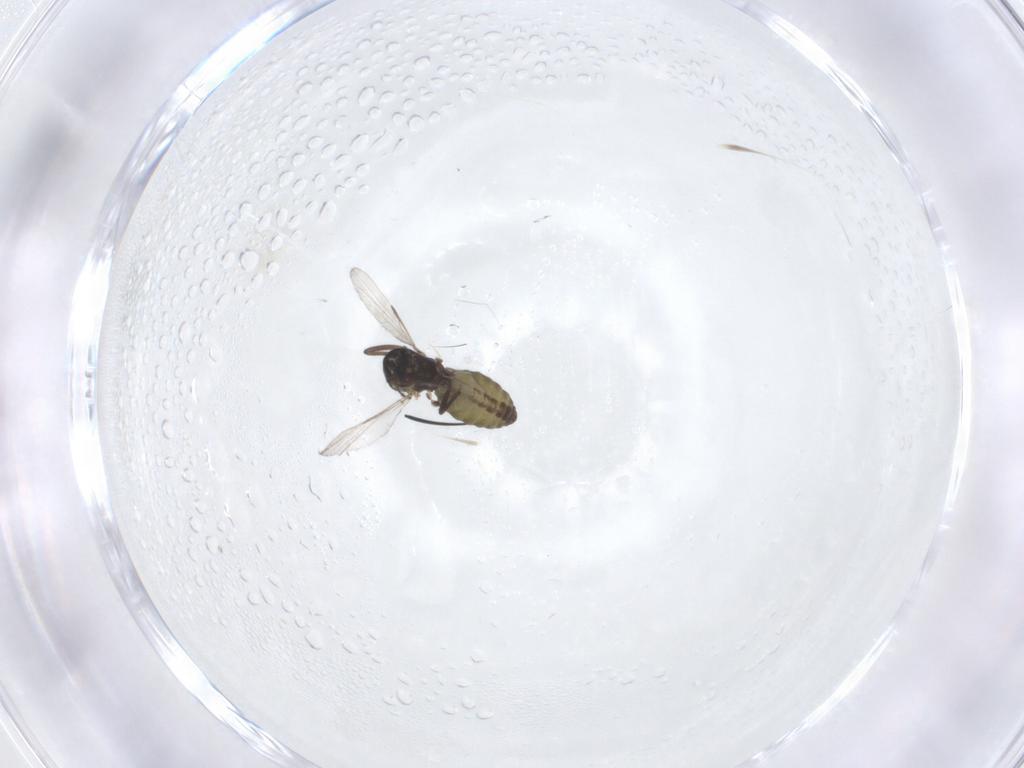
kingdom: Animalia
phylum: Arthropoda
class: Insecta
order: Diptera
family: Ceratopogonidae
